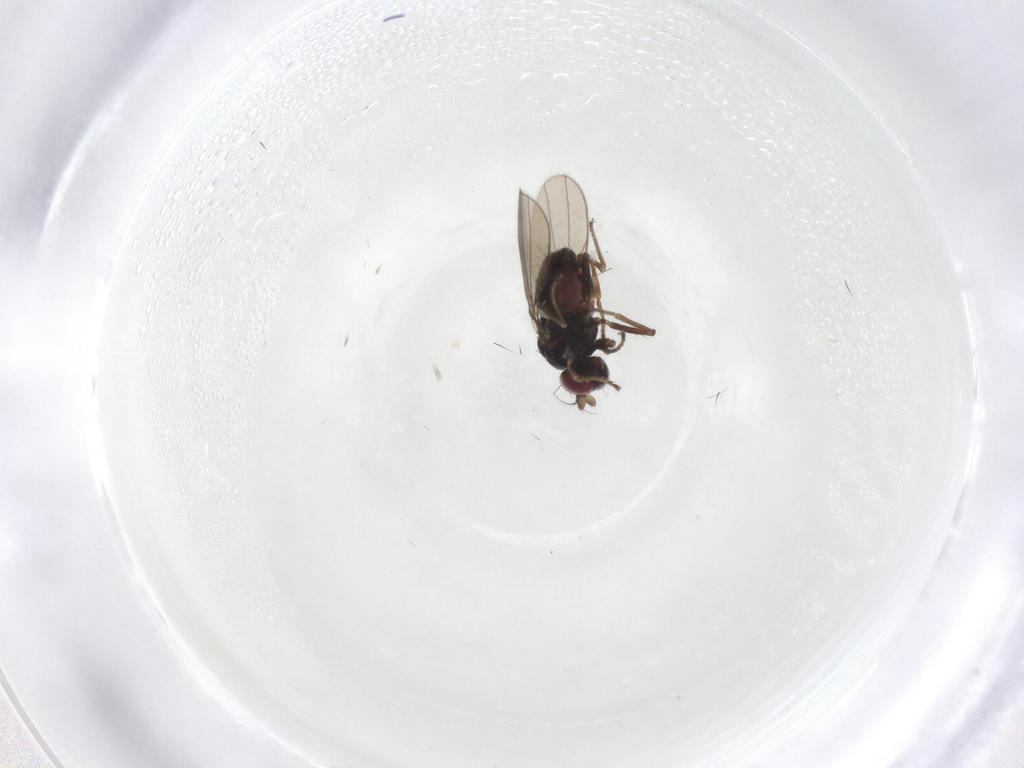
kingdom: Animalia
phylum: Arthropoda
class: Insecta
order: Diptera
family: Ephydridae
